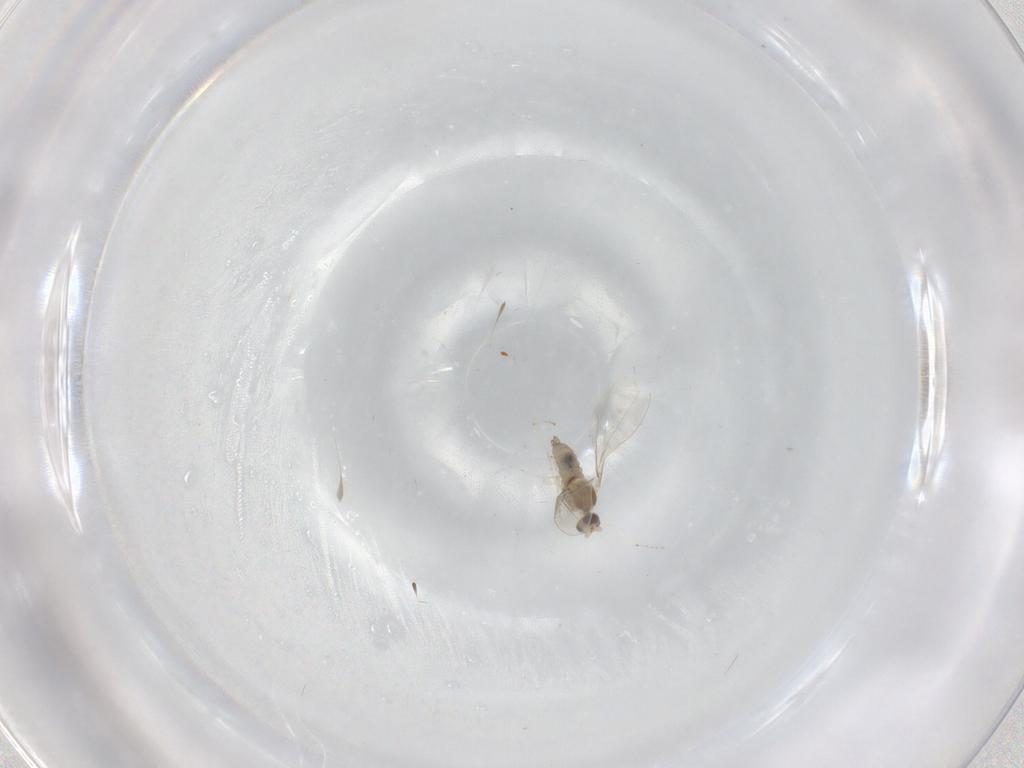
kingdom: Animalia
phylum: Arthropoda
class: Insecta
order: Diptera
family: Cecidomyiidae
